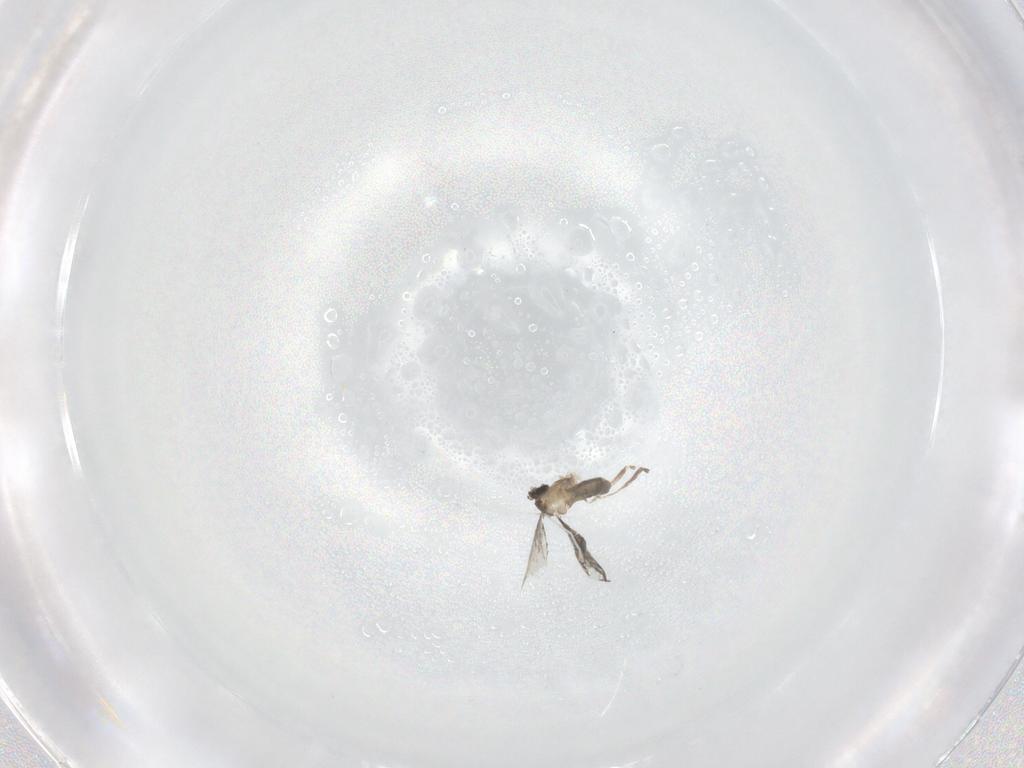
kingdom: Animalia
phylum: Arthropoda
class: Insecta
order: Diptera
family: Cecidomyiidae
